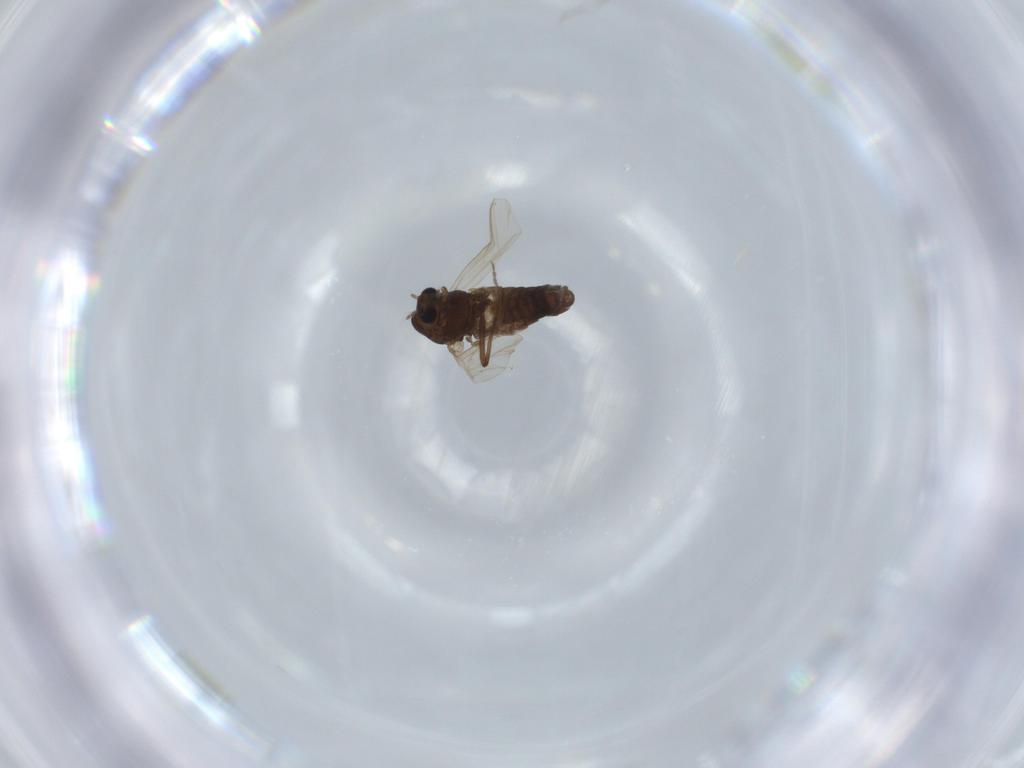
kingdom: Animalia
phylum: Arthropoda
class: Insecta
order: Diptera
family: Chironomidae
